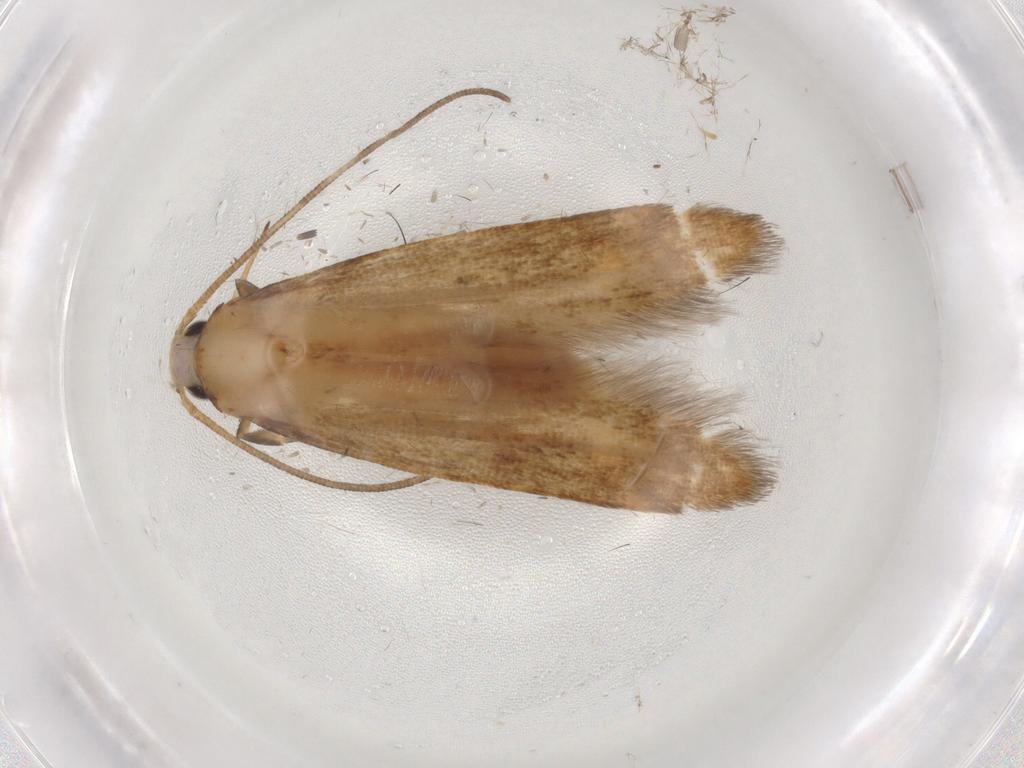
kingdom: Animalia
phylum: Arthropoda
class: Insecta
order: Lepidoptera
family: Nolidae
